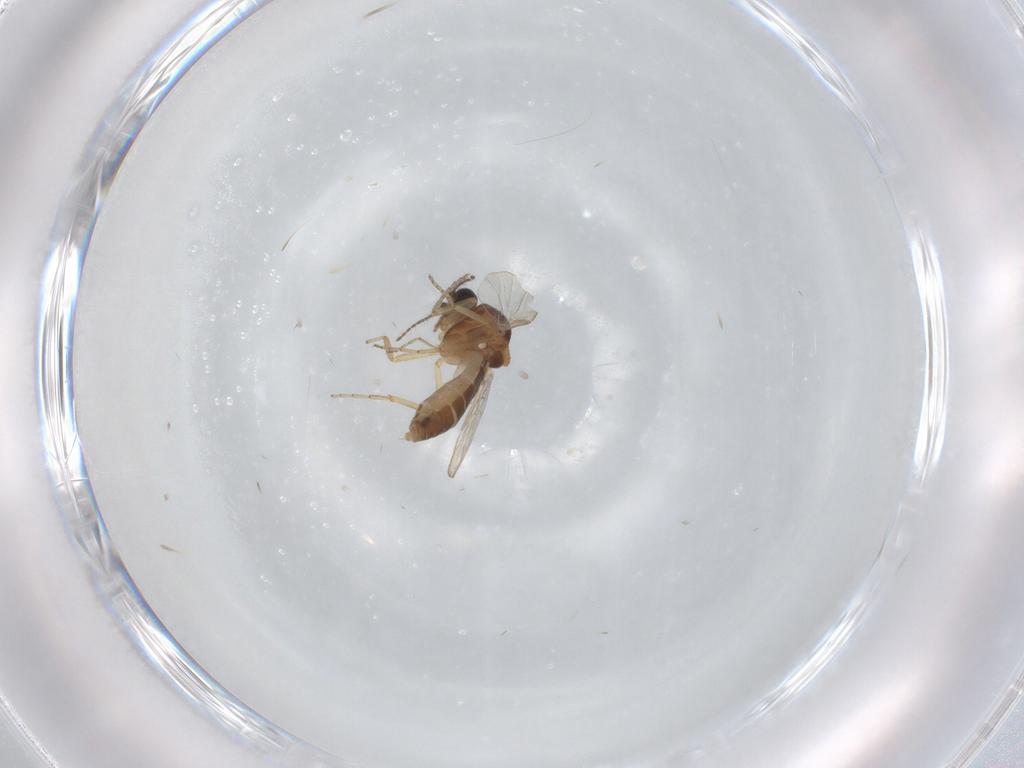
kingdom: Animalia
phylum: Arthropoda
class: Insecta
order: Diptera
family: Ceratopogonidae
